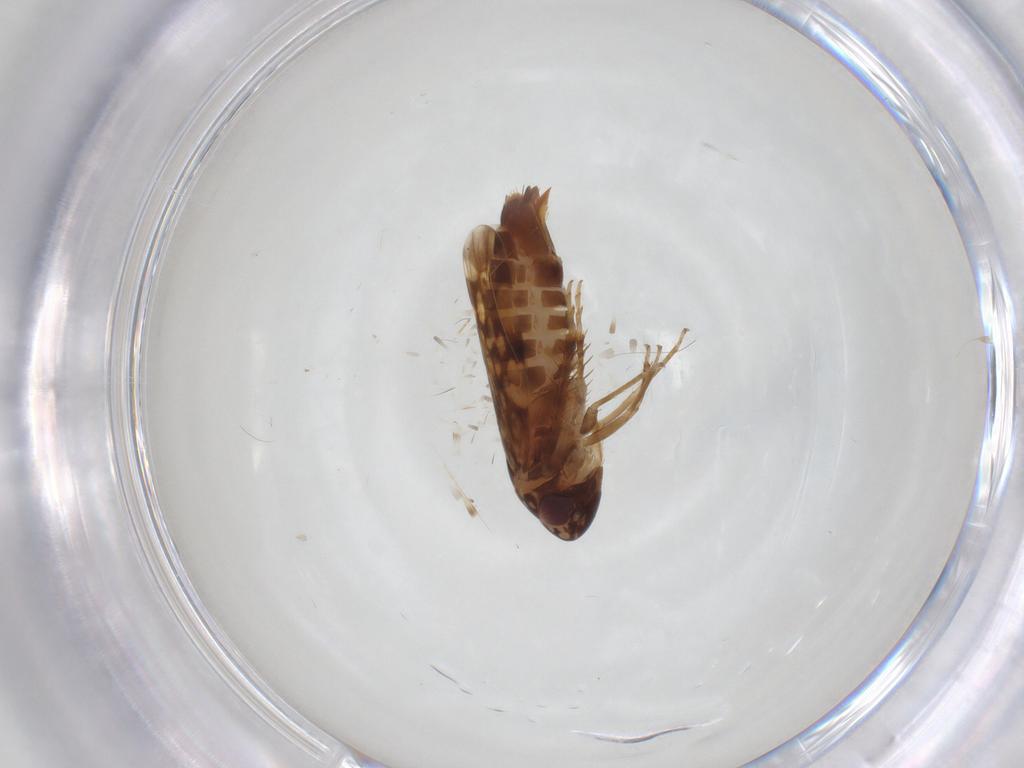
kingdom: Animalia
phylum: Arthropoda
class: Insecta
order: Hemiptera
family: Cicadellidae
